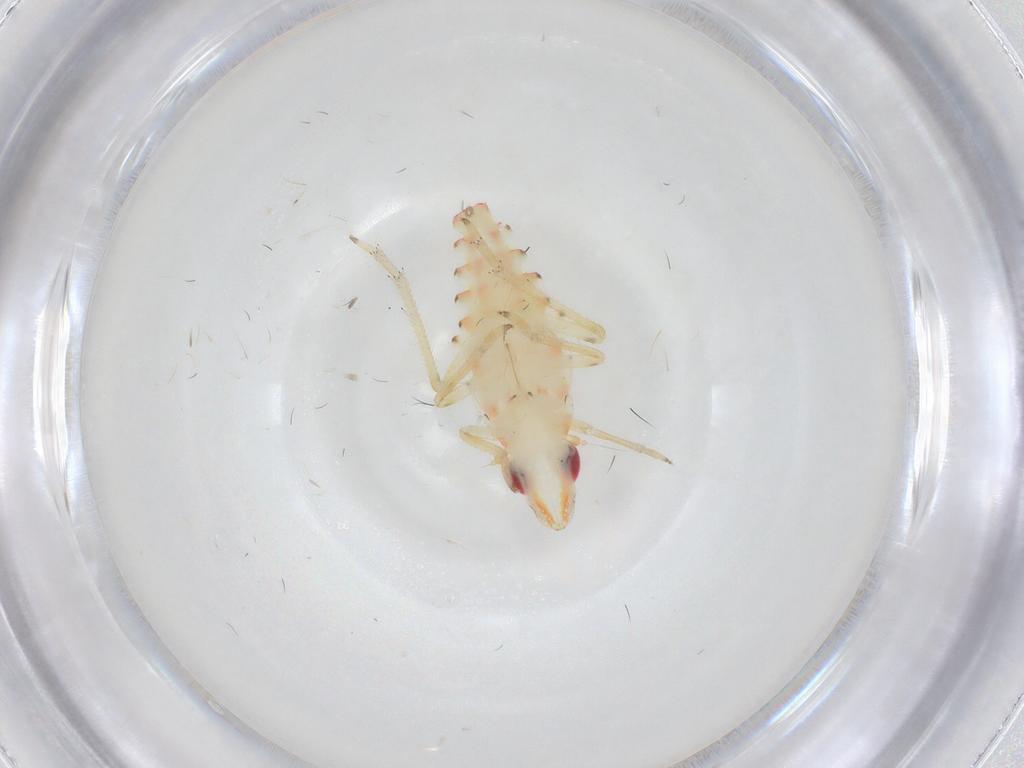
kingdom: Animalia
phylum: Arthropoda
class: Insecta
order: Hemiptera
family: Tropiduchidae
